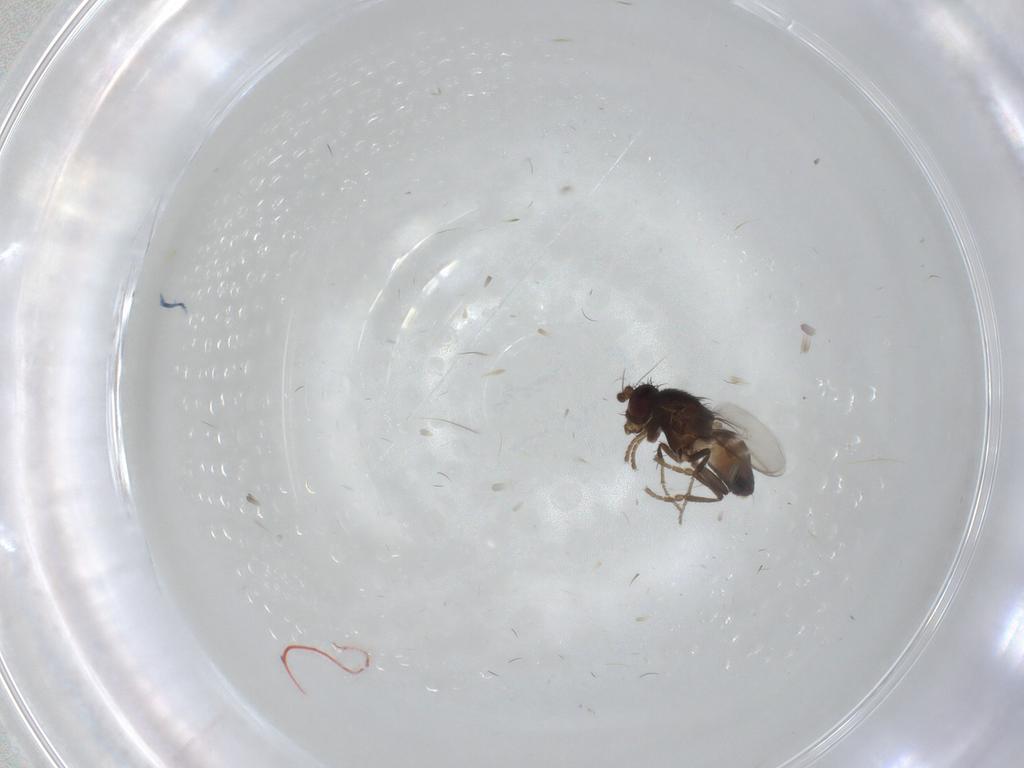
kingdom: Animalia
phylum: Arthropoda
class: Insecta
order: Diptera
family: Sphaeroceridae
